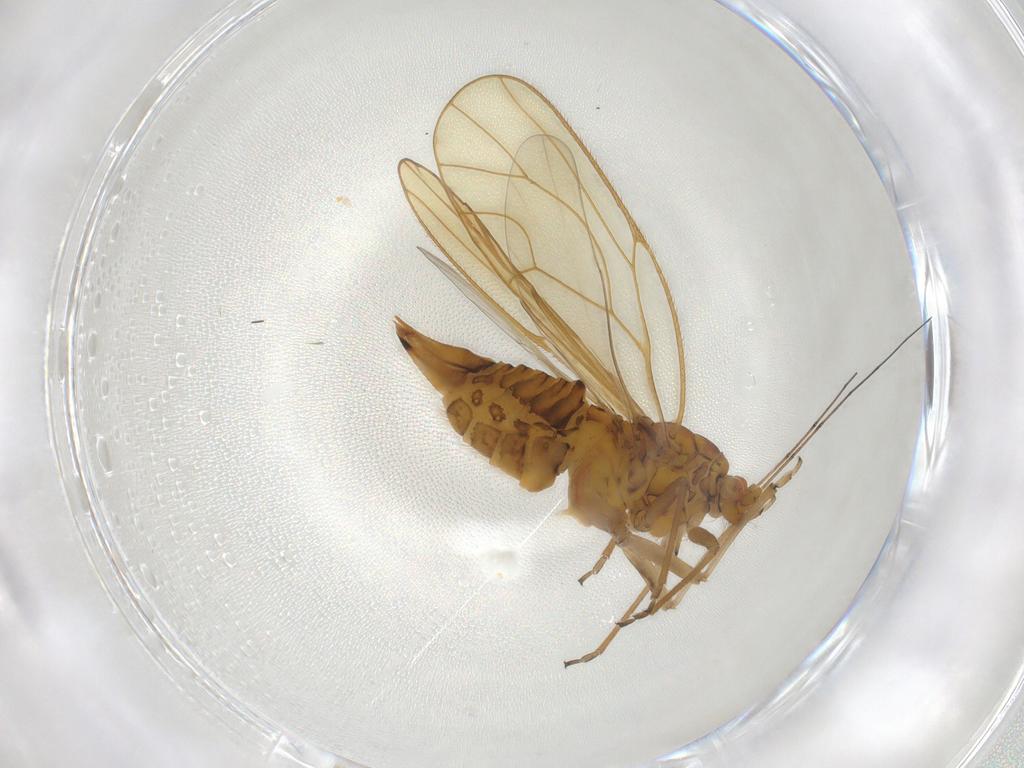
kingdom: Animalia
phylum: Arthropoda
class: Insecta
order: Hemiptera
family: Psyllidae
